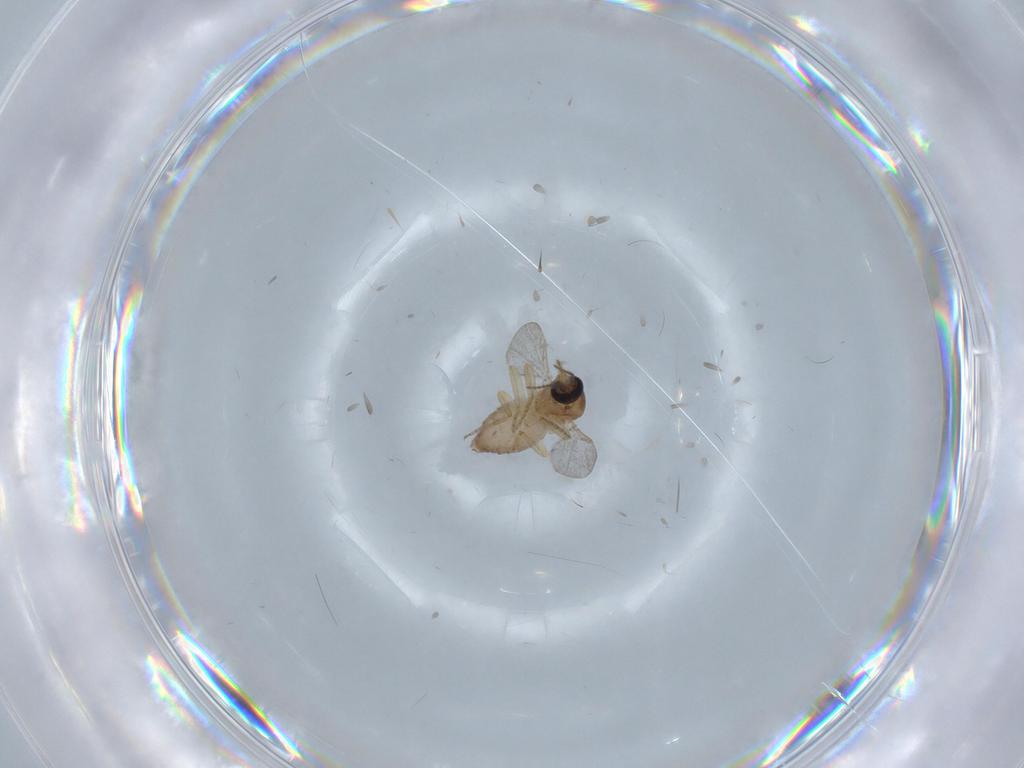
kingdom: Animalia
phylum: Arthropoda
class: Insecta
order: Diptera
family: Ceratopogonidae
